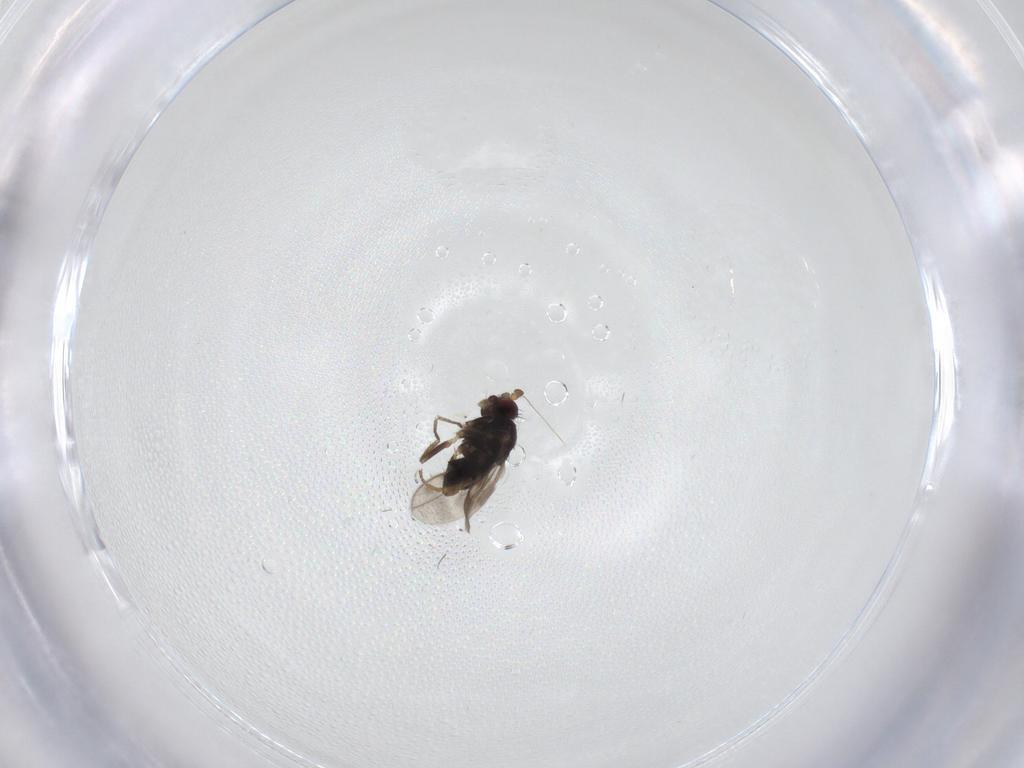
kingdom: Animalia
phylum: Arthropoda
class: Insecta
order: Diptera
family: Sphaeroceridae
